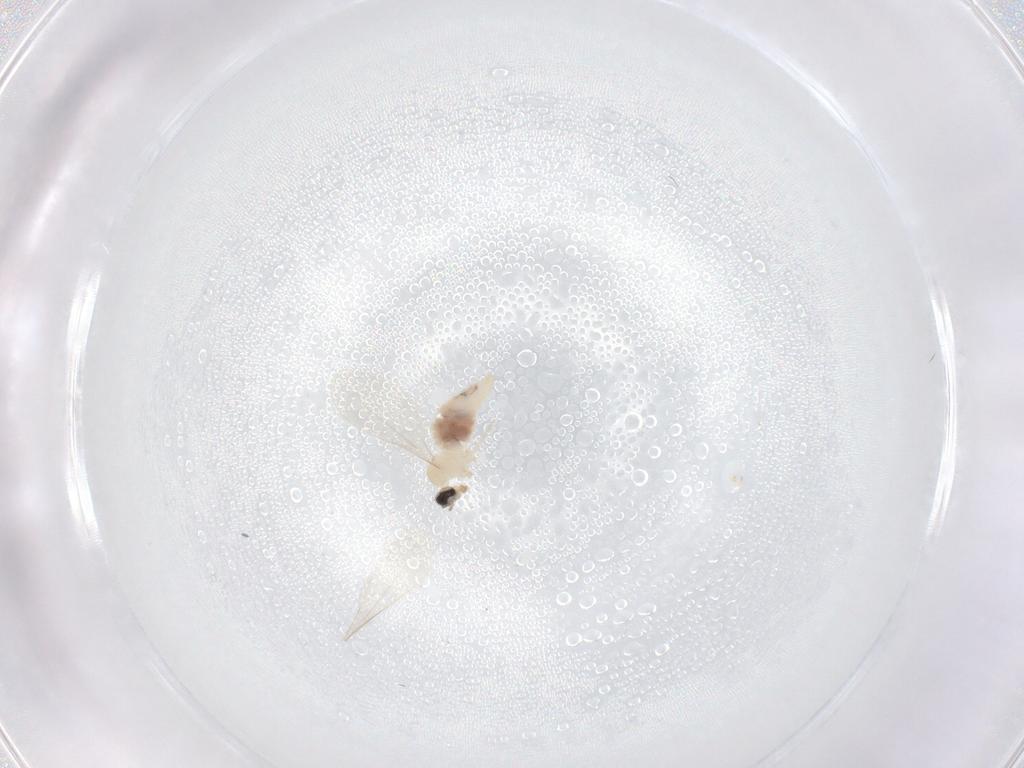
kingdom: Animalia
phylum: Arthropoda
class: Insecta
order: Diptera
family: Cecidomyiidae
